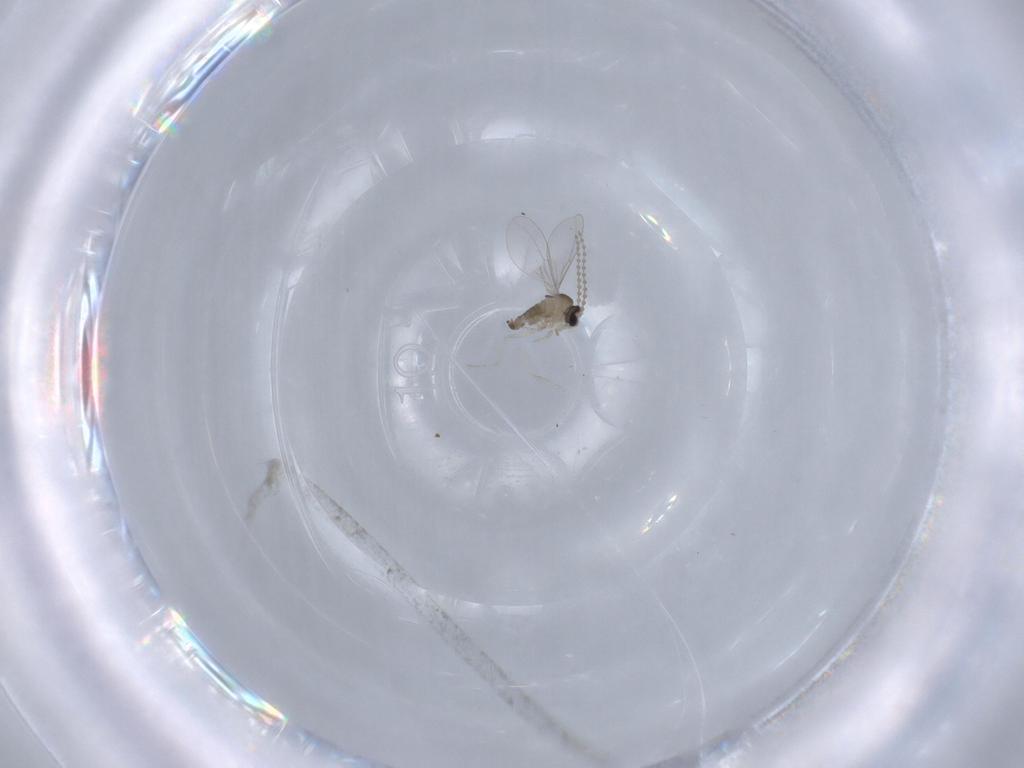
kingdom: Animalia
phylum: Arthropoda
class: Insecta
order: Diptera
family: Cecidomyiidae
